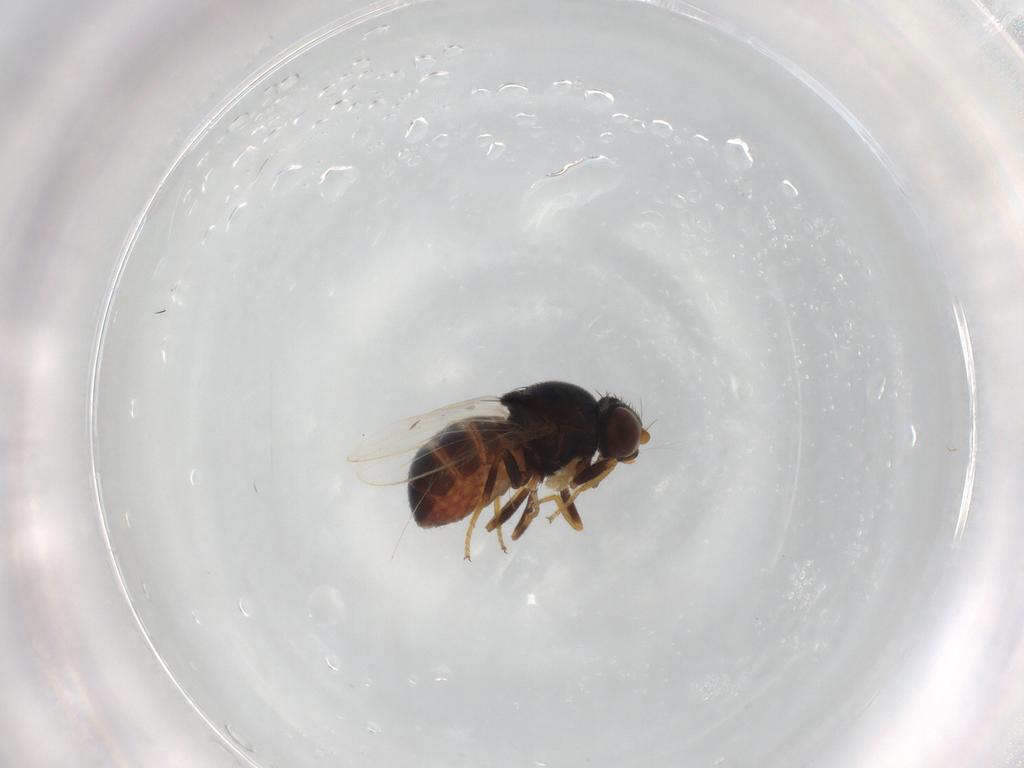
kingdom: Animalia
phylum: Arthropoda
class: Insecta
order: Diptera
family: Chloropidae
